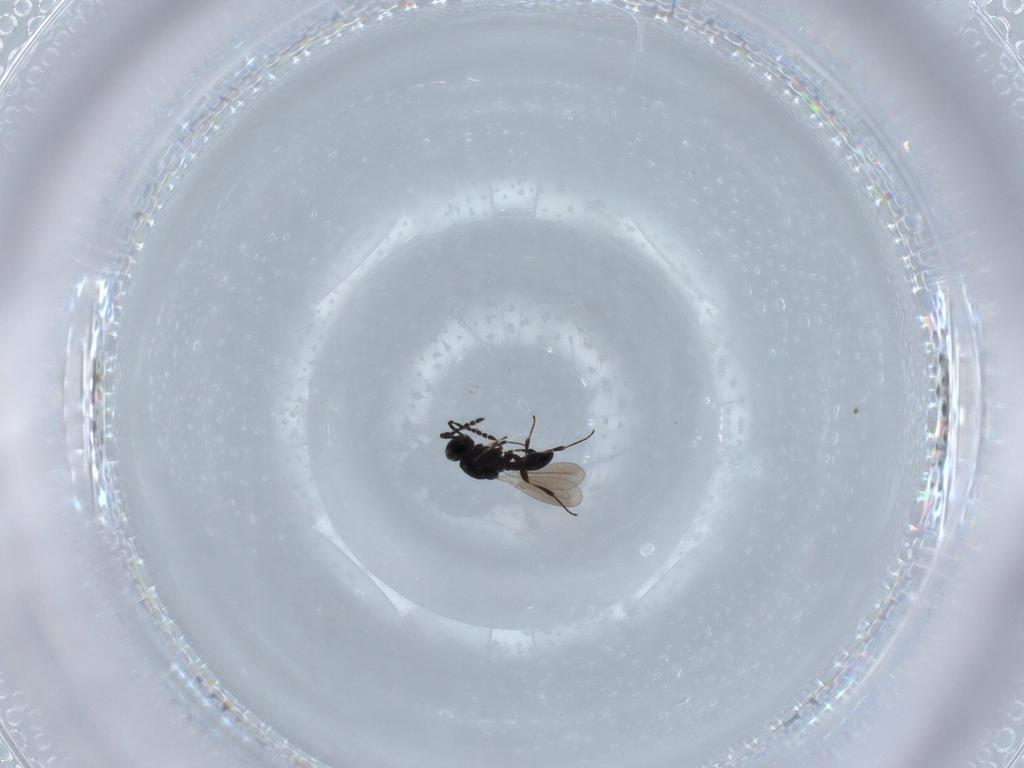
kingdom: Animalia
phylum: Arthropoda
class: Insecta
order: Hymenoptera
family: Platygastridae
